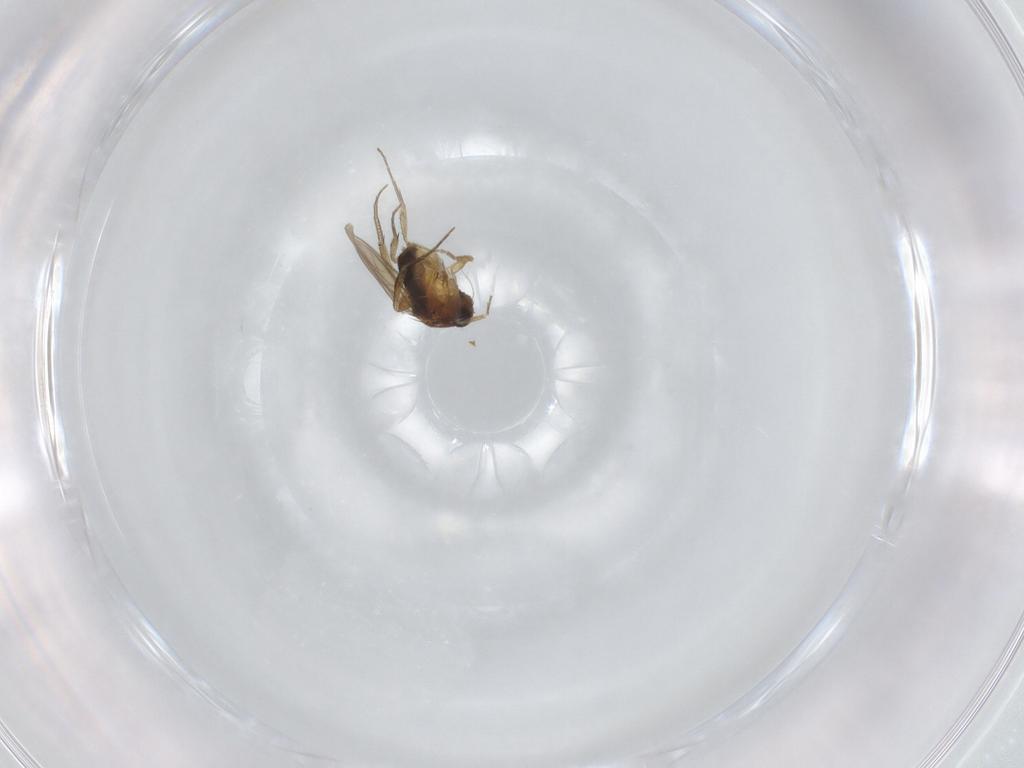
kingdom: Animalia
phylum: Arthropoda
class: Insecta
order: Diptera
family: Phoridae
